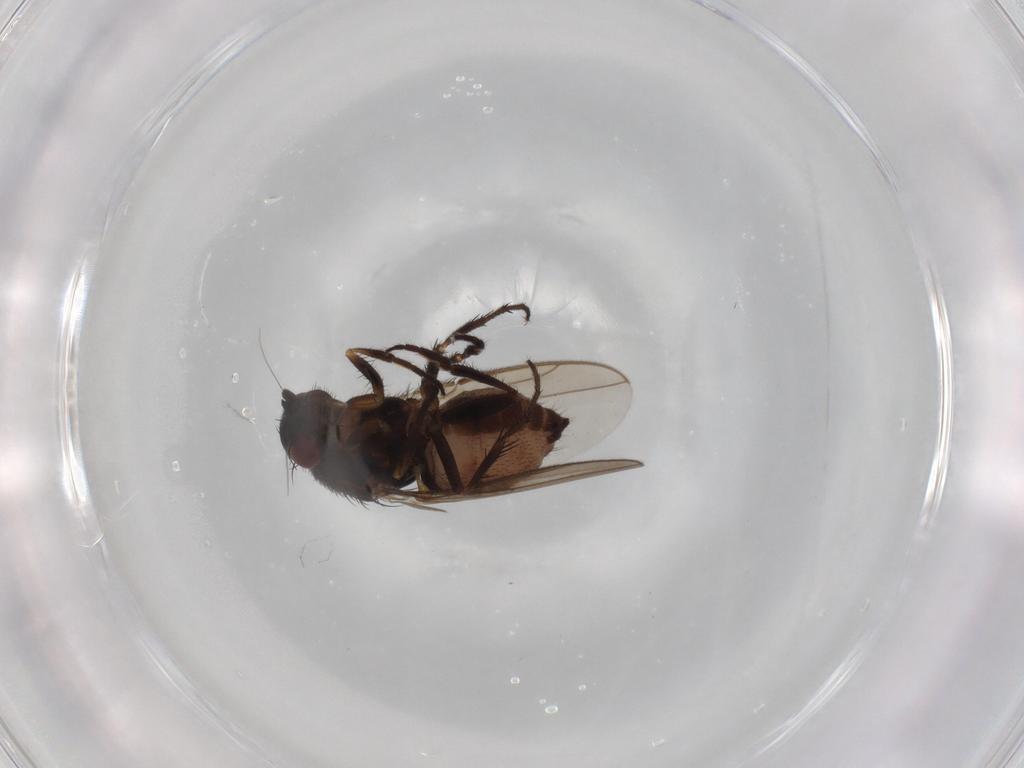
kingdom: Animalia
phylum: Arthropoda
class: Insecta
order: Diptera
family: Sphaeroceridae
